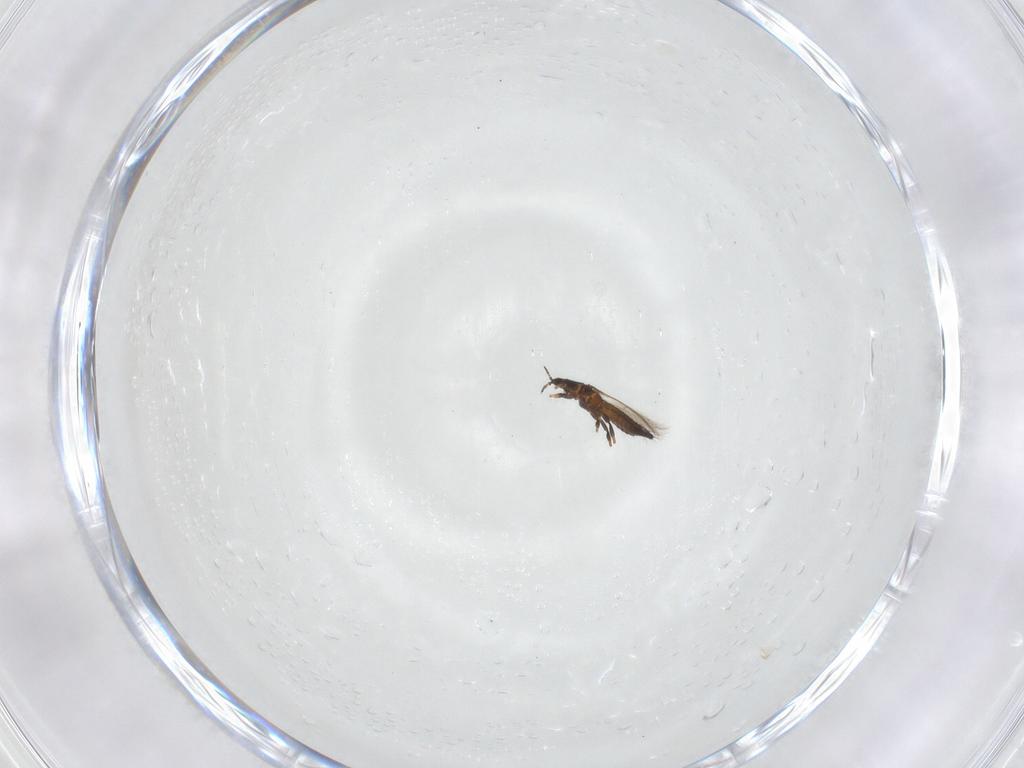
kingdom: Animalia
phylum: Arthropoda
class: Insecta
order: Thysanoptera
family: Thripidae
